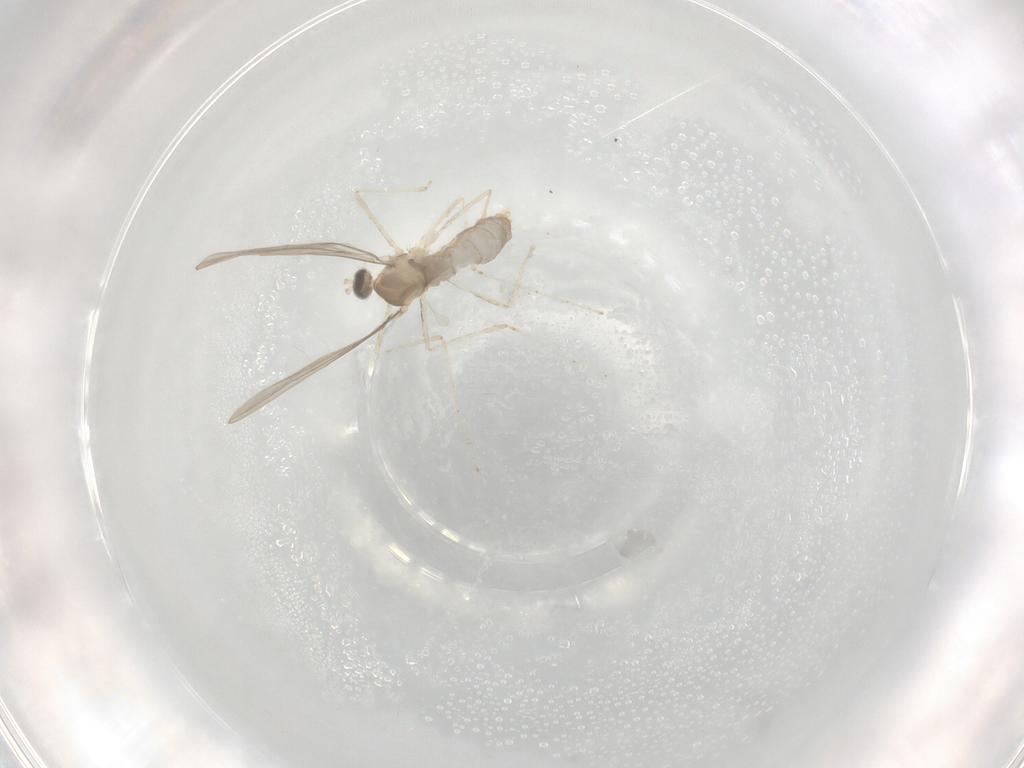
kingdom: Animalia
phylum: Arthropoda
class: Insecta
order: Diptera
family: Cecidomyiidae
